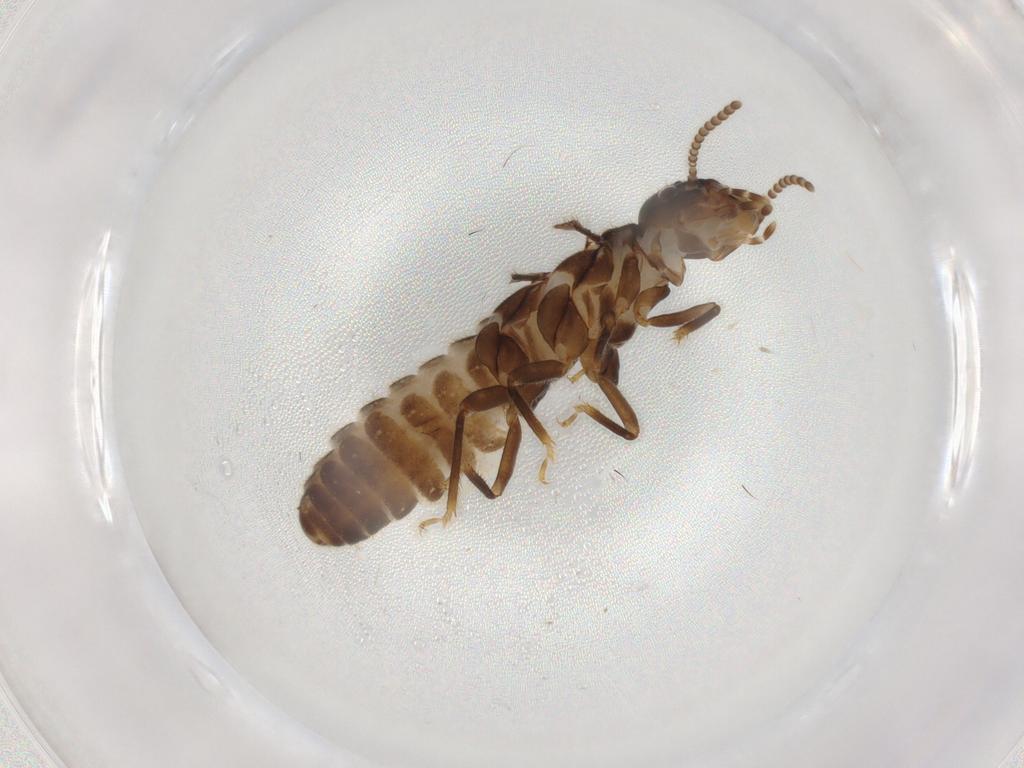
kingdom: Animalia
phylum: Arthropoda
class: Insecta
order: Blattodea
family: Termitidae
